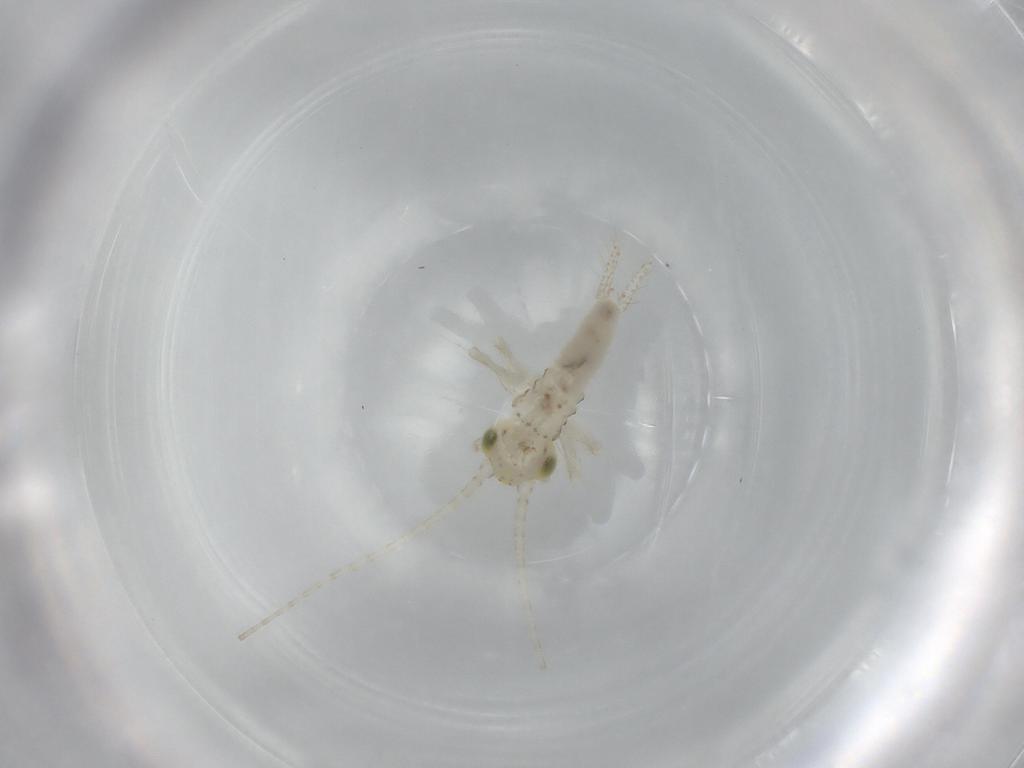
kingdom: Animalia
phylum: Arthropoda
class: Insecta
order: Orthoptera
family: Trigonidiidae
